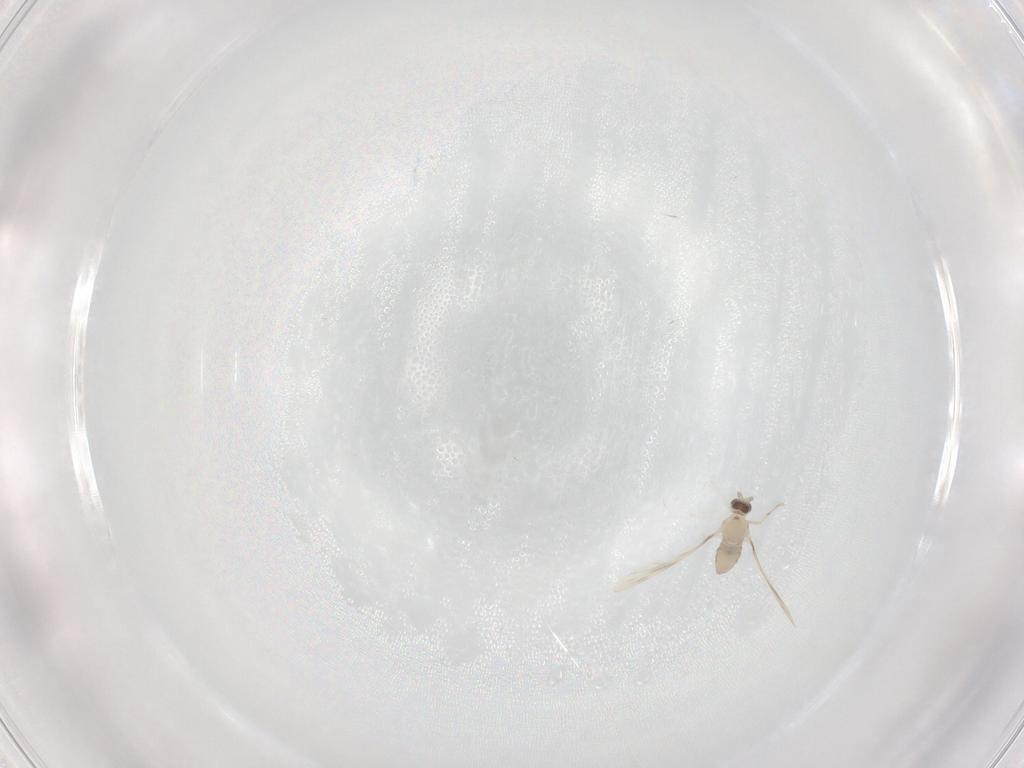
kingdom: Animalia
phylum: Arthropoda
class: Insecta
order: Diptera
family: Cecidomyiidae
